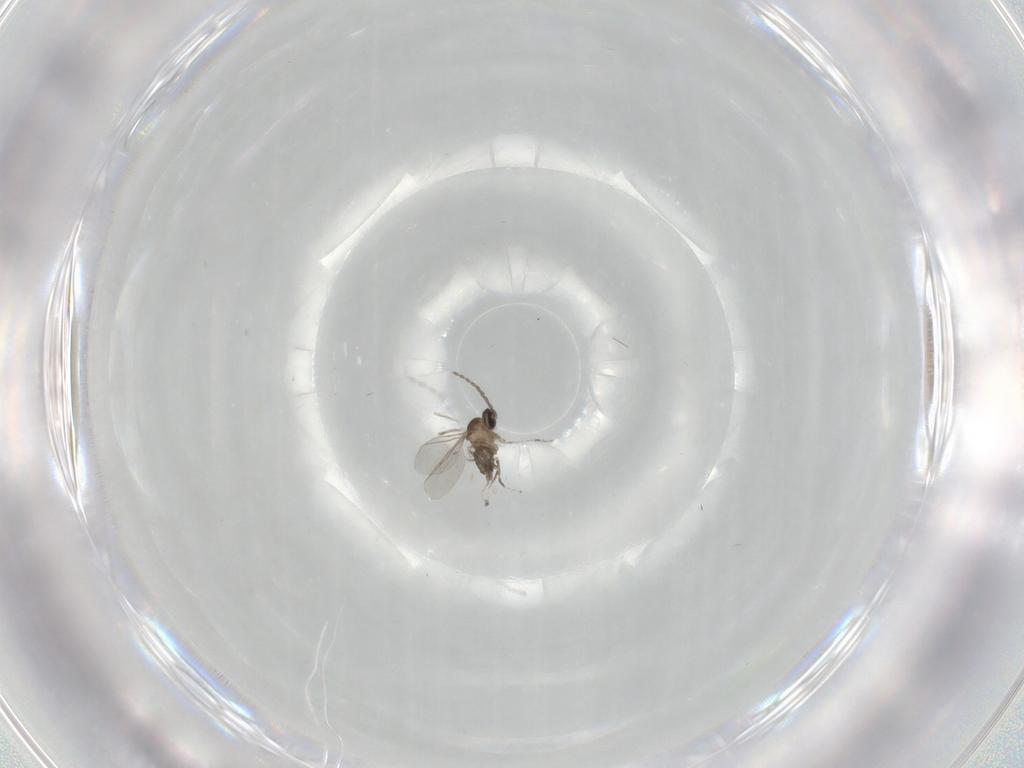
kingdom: Animalia
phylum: Arthropoda
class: Insecta
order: Diptera
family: Cecidomyiidae
